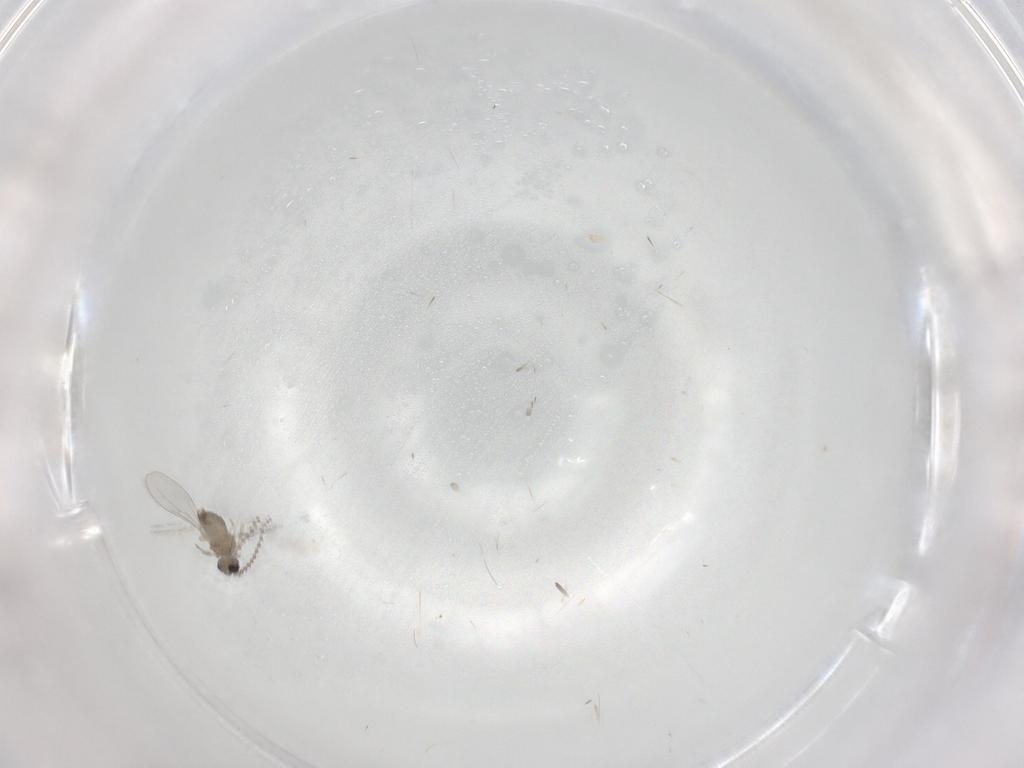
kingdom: Animalia
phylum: Arthropoda
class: Insecta
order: Diptera
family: Cecidomyiidae
